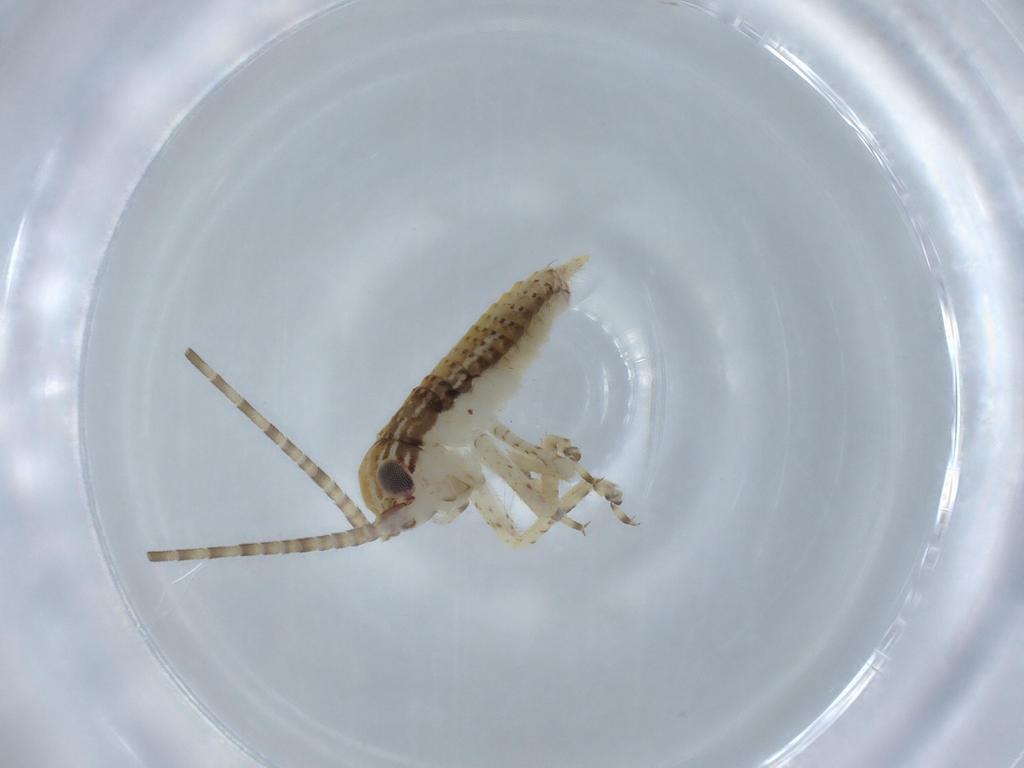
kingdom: Animalia
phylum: Arthropoda
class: Insecta
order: Orthoptera
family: Gryllidae
